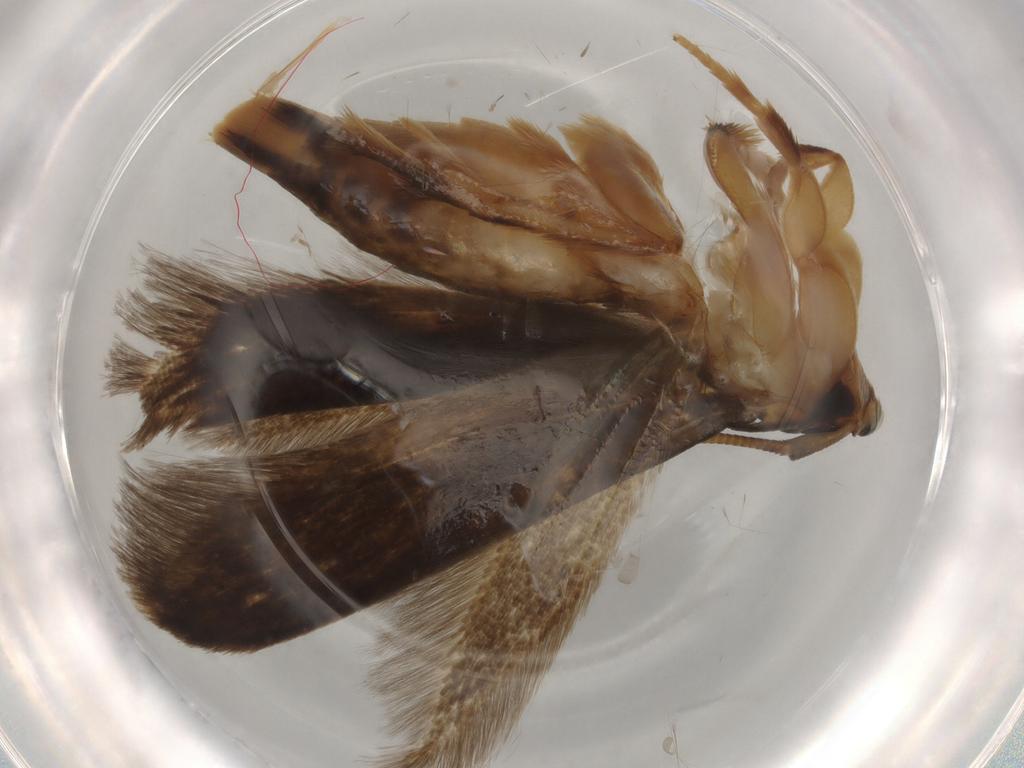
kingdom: Animalia
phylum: Arthropoda
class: Insecta
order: Lepidoptera
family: Tineidae
